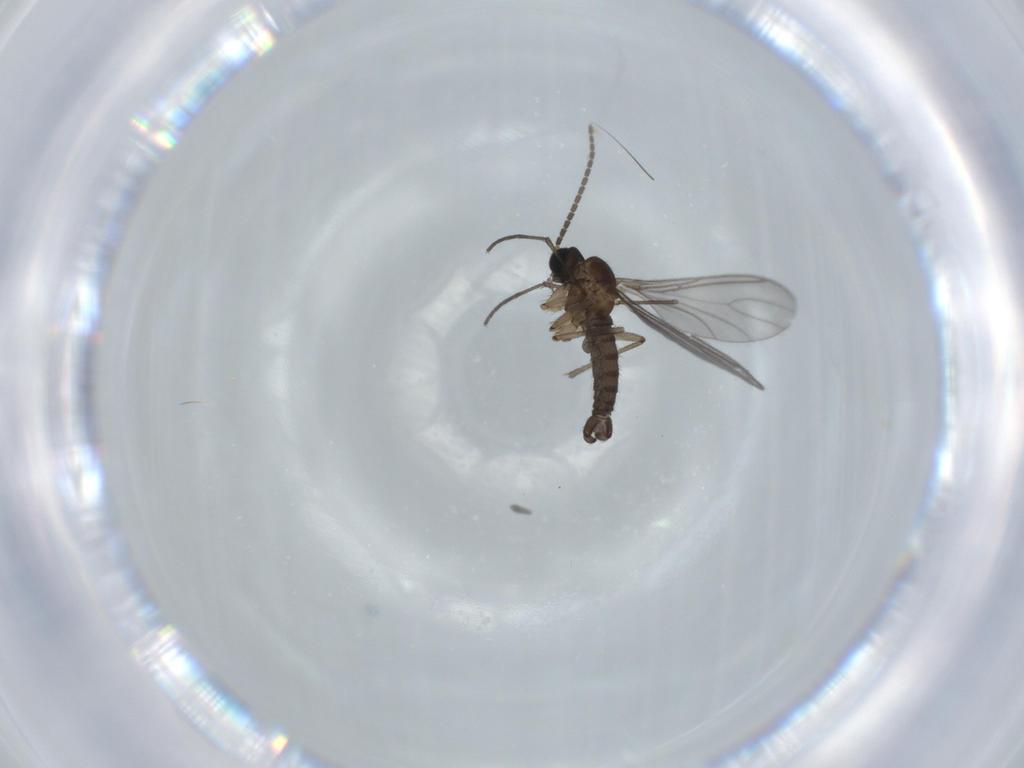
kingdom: Animalia
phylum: Arthropoda
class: Insecta
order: Diptera
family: Sciaridae
